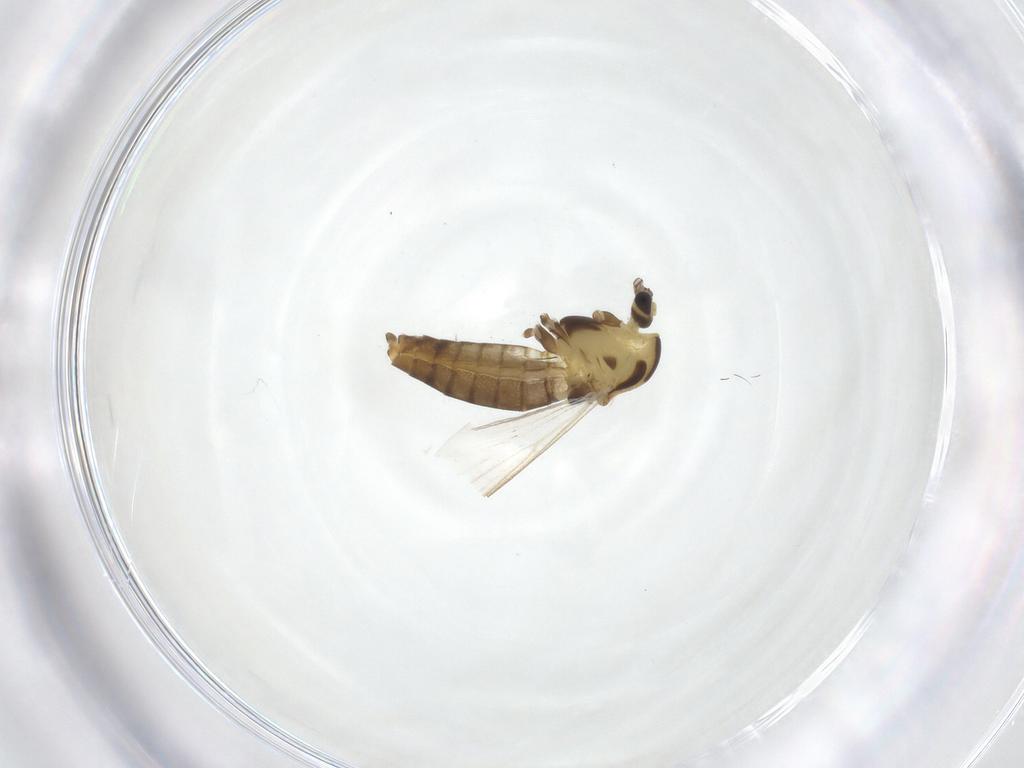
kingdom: Animalia
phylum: Arthropoda
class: Insecta
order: Diptera
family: Chironomidae
